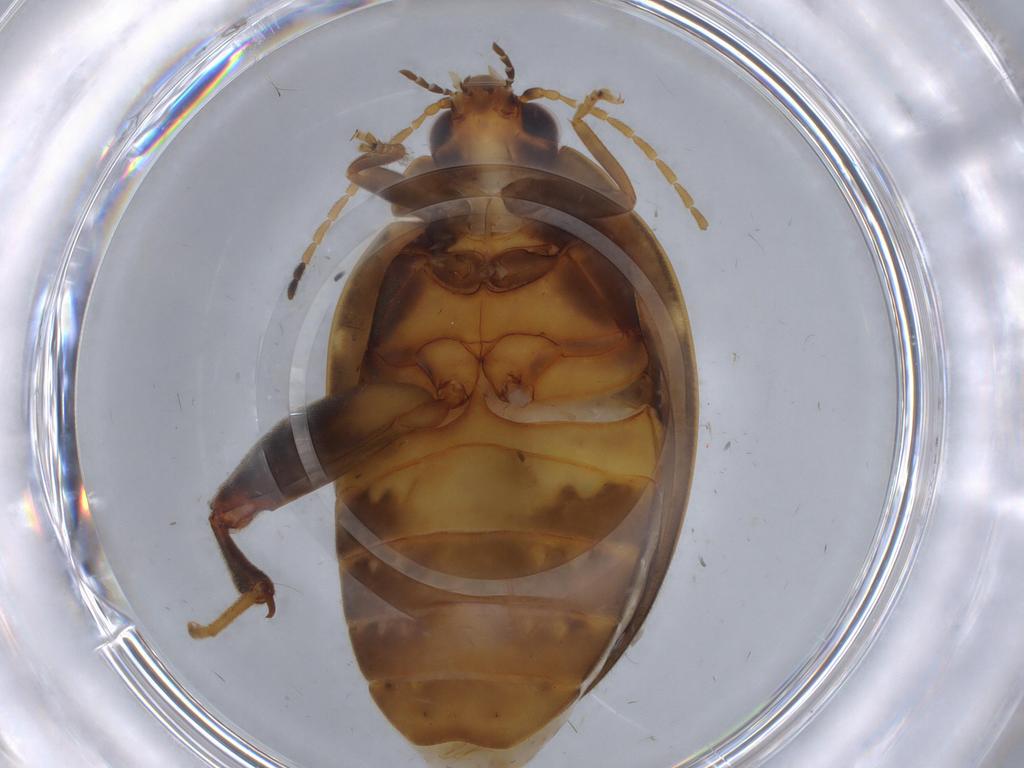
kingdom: Animalia
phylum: Arthropoda
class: Insecta
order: Coleoptera
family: Scirtidae
